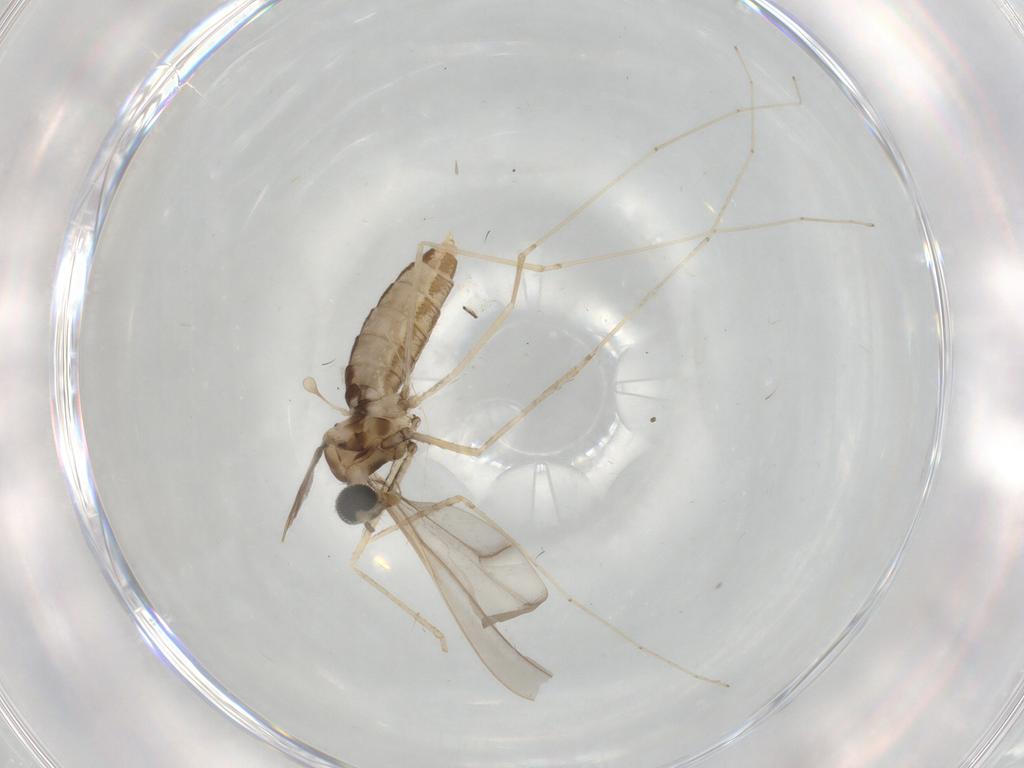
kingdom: Animalia
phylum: Arthropoda
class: Insecta
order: Diptera
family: Cecidomyiidae
